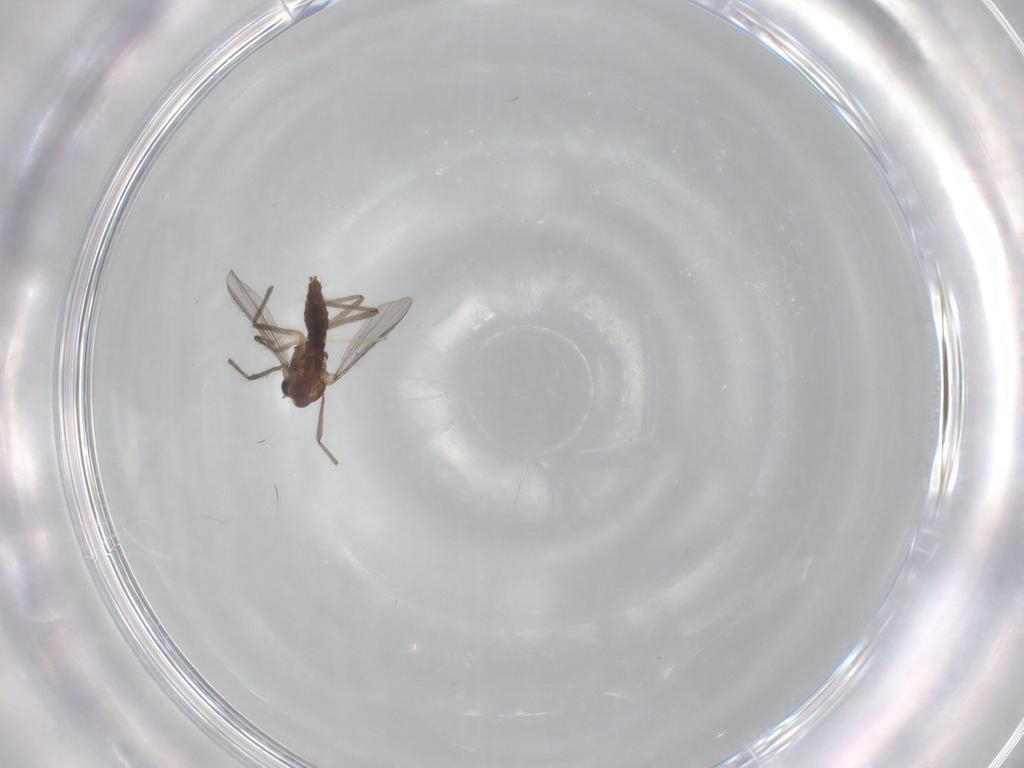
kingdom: Animalia
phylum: Arthropoda
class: Insecta
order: Diptera
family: Chironomidae
